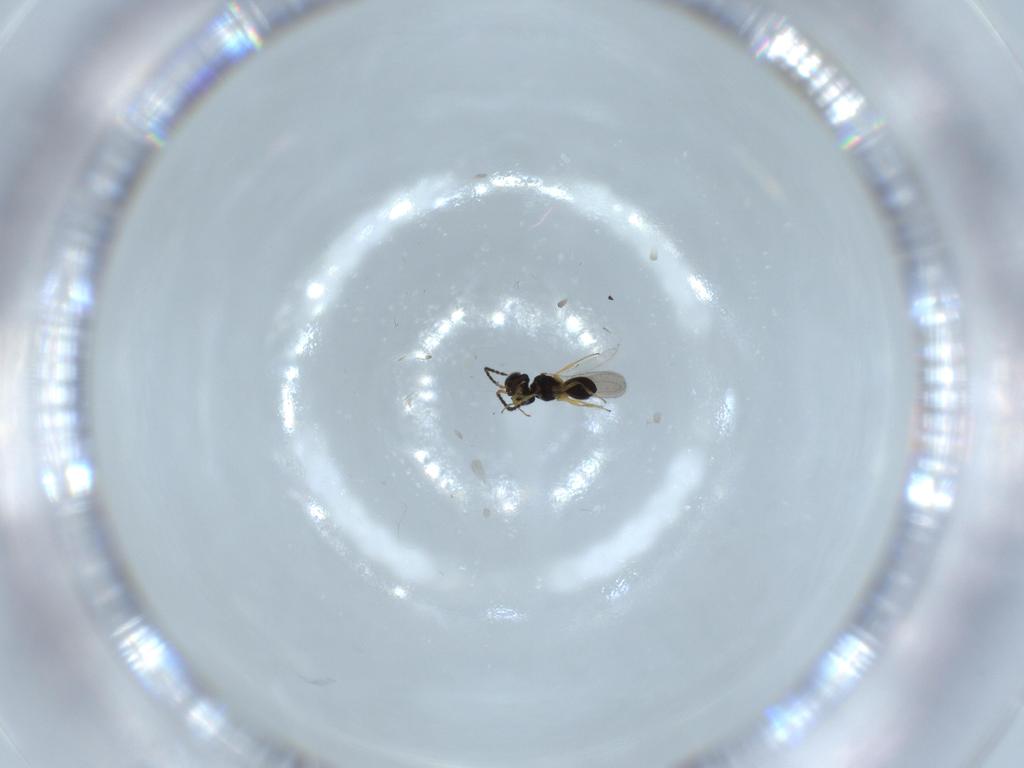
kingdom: Animalia
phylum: Arthropoda
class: Insecta
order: Hymenoptera
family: Scelionidae
